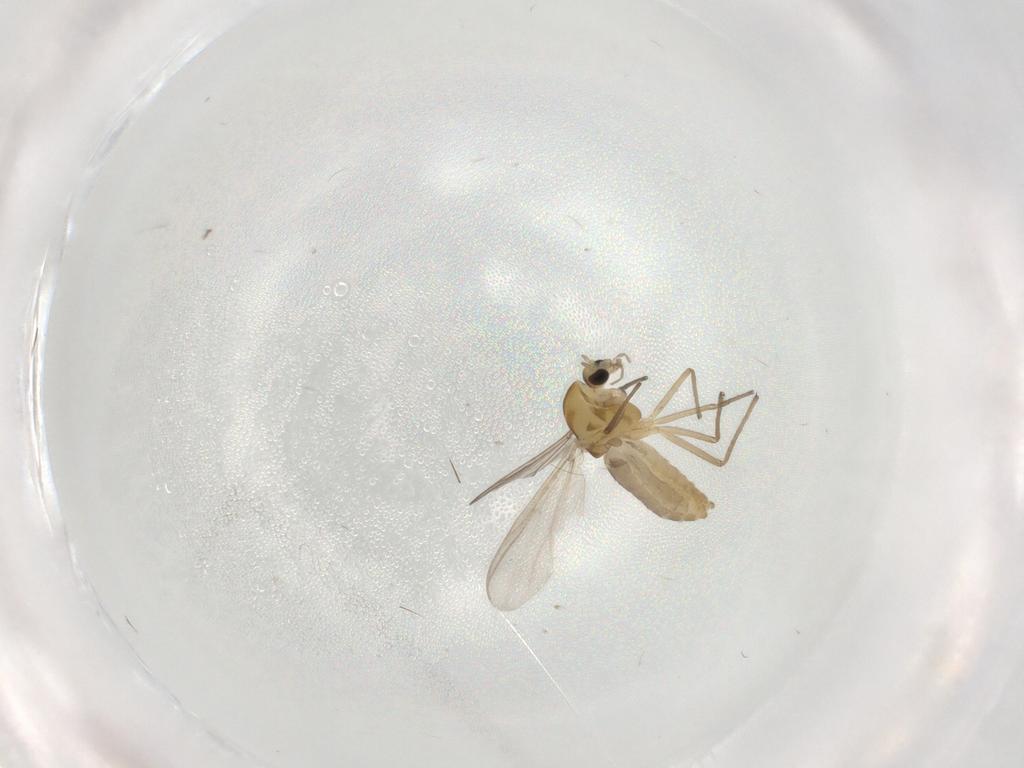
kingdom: Animalia
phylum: Arthropoda
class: Insecta
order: Diptera
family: Chironomidae
